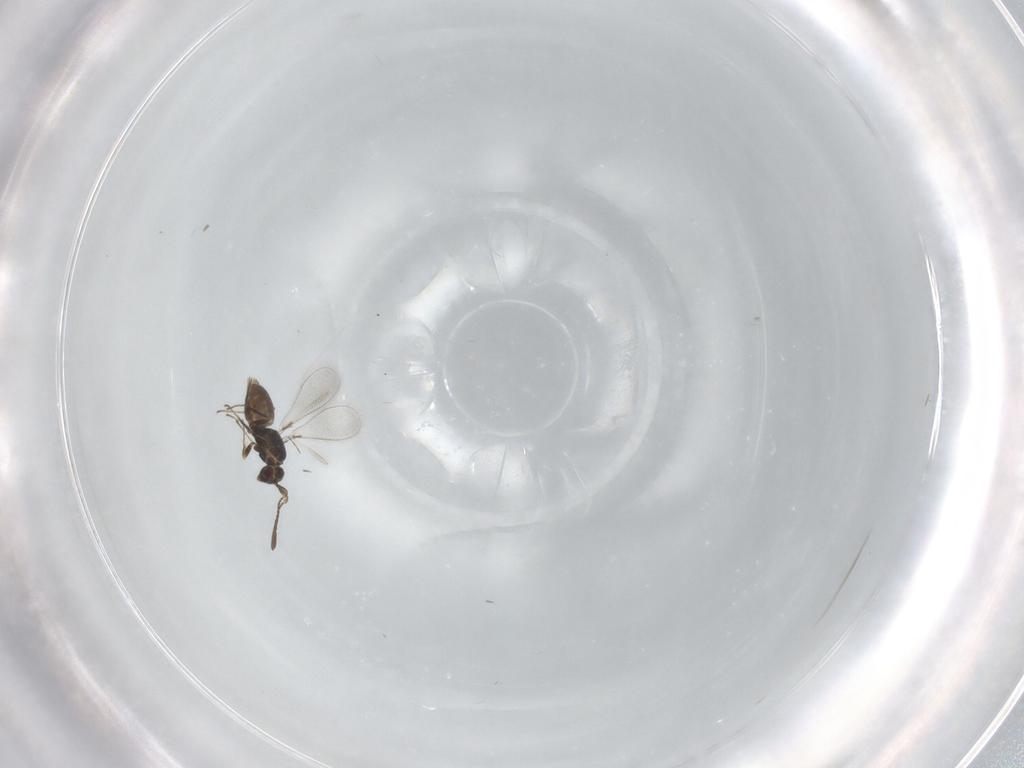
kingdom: Animalia
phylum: Arthropoda
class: Insecta
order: Hymenoptera
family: Mymaridae
